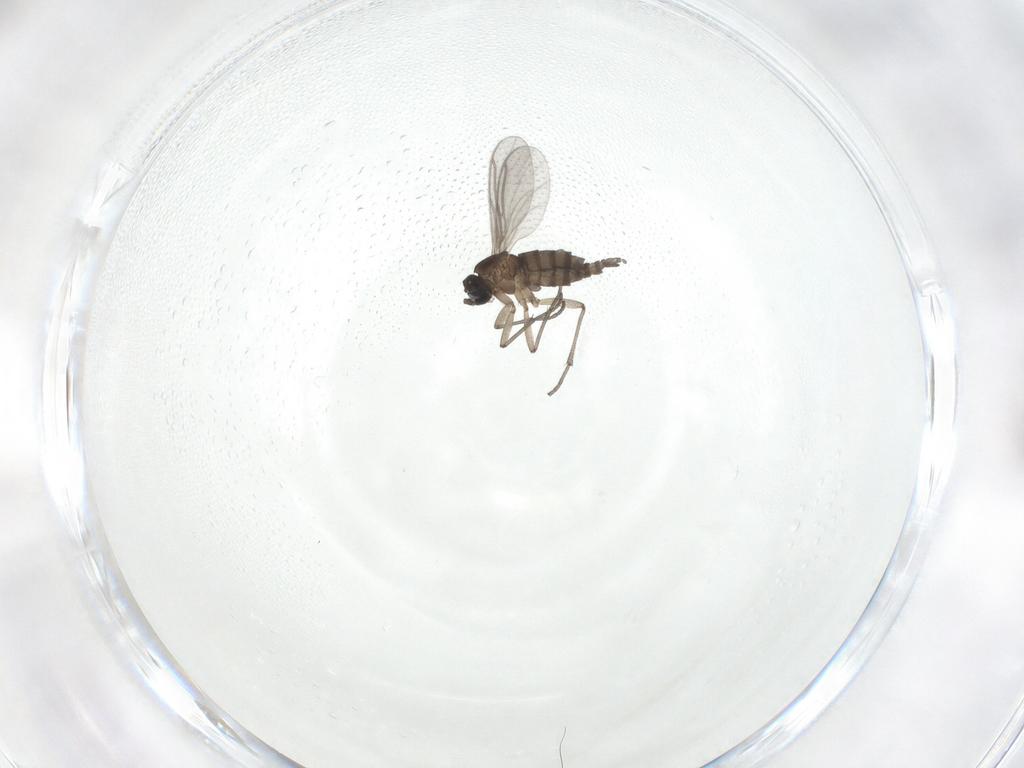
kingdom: Animalia
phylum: Arthropoda
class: Insecta
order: Diptera
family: Sciaridae
